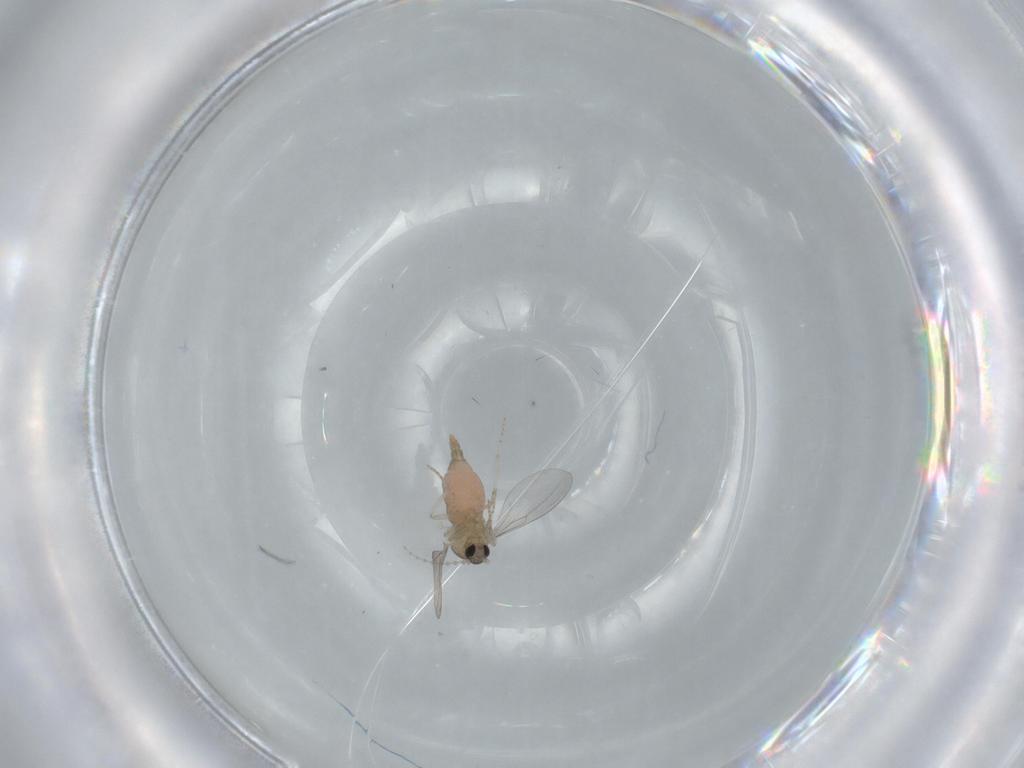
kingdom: Animalia
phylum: Arthropoda
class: Insecta
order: Diptera
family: Cecidomyiidae
